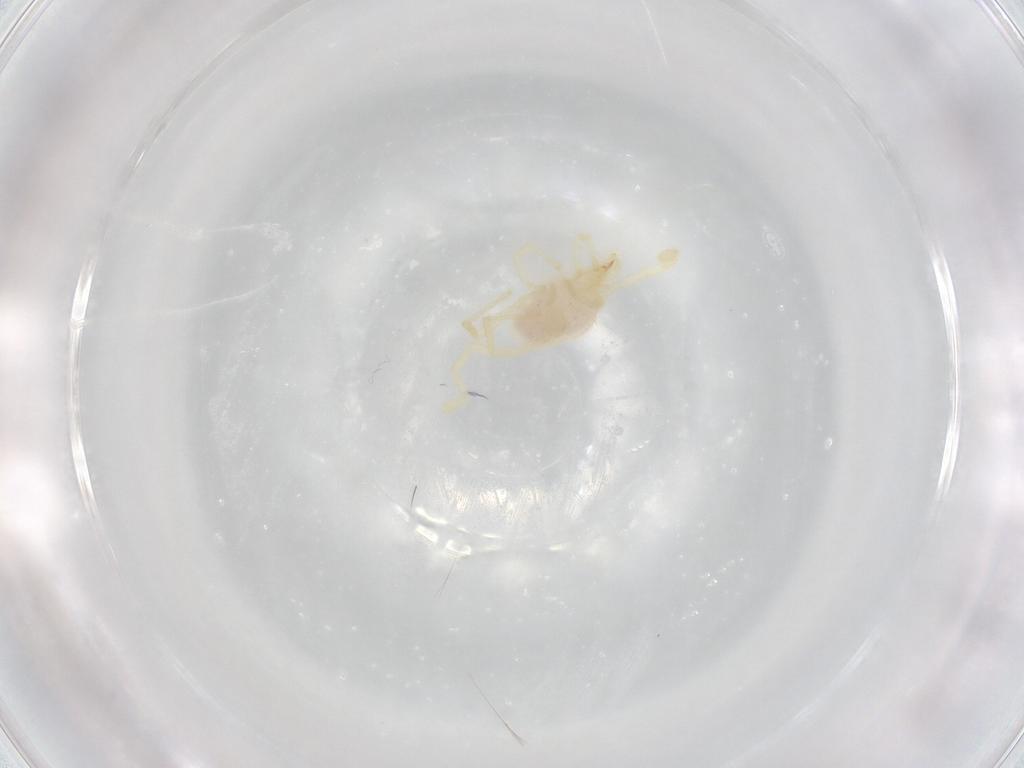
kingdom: Animalia
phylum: Arthropoda
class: Arachnida
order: Trombidiformes
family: Erythraeidae
